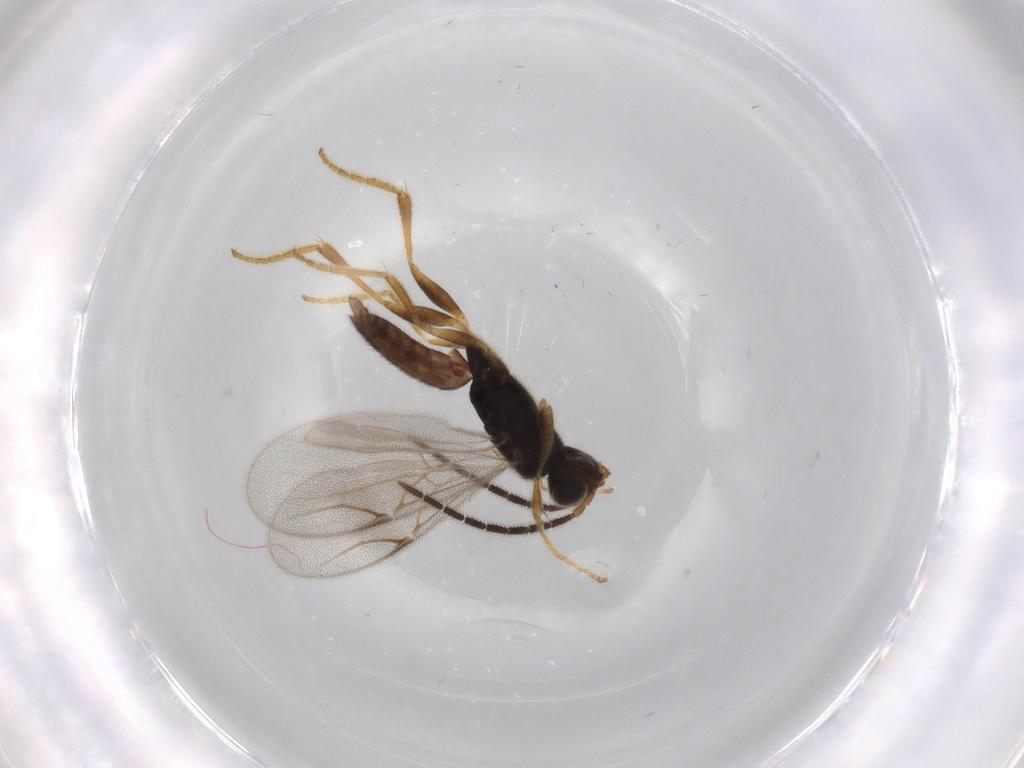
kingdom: Animalia
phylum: Arthropoda
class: Insecta
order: Hymenoptera
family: Dryinidae
